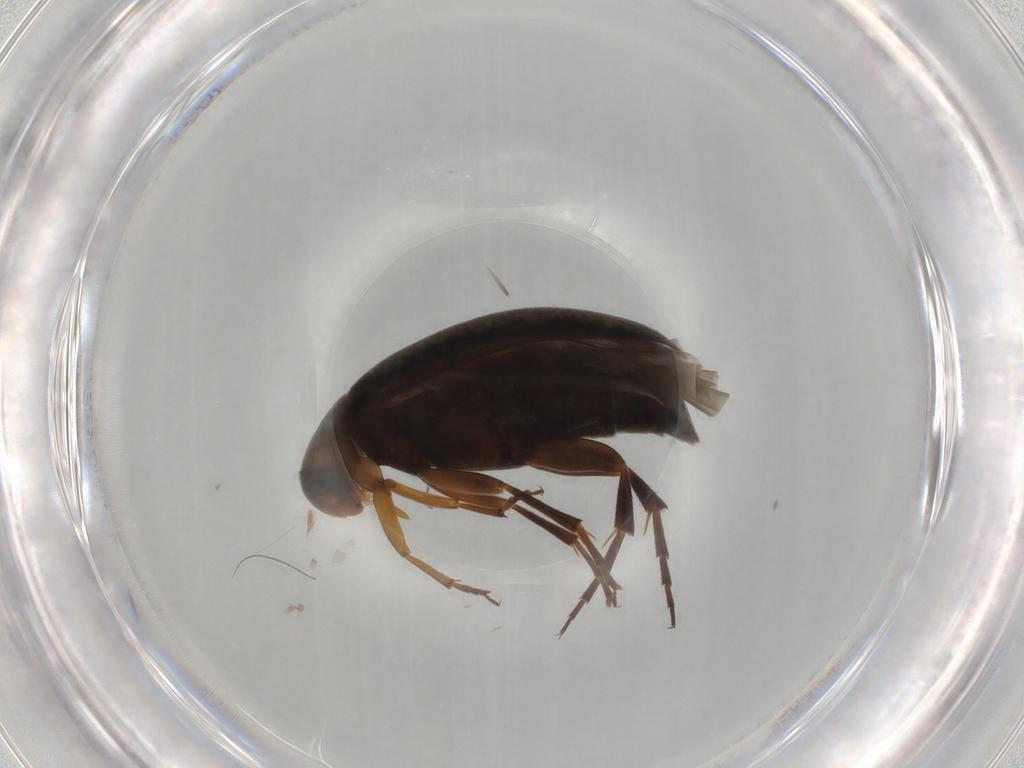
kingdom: Animalia
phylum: Arthropoda
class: Insecta
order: Coleoptera
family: Scraptiidae
